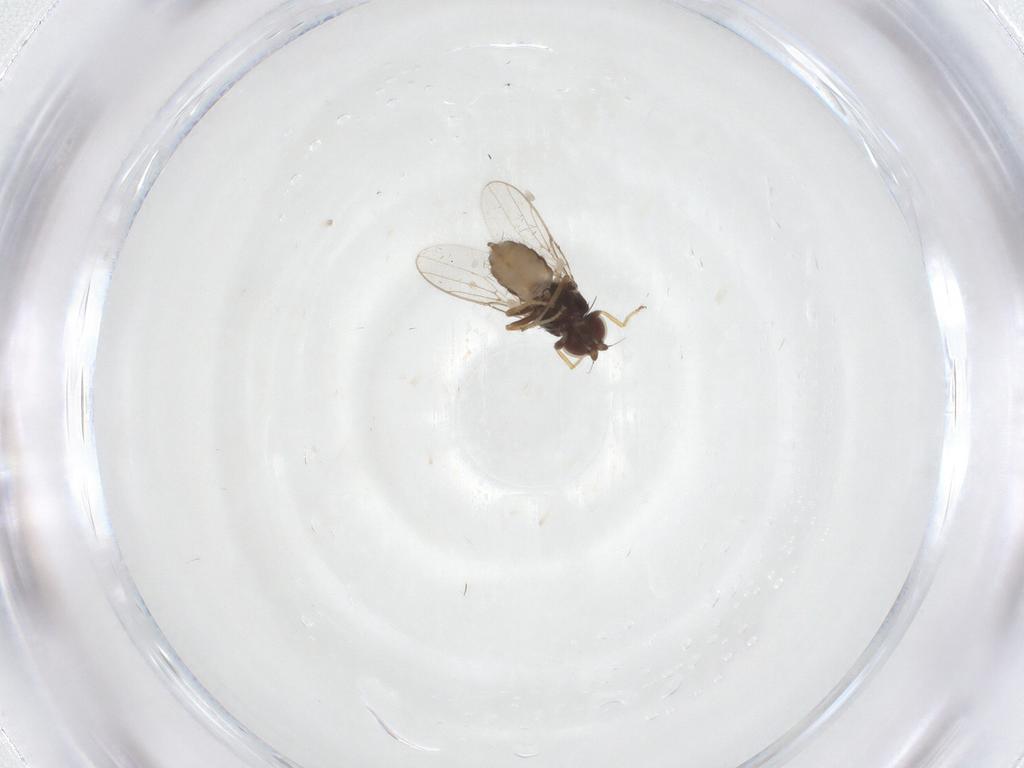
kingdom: Animalia
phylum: Arthropoda
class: Insecta
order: Diptera
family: Chloropidae
